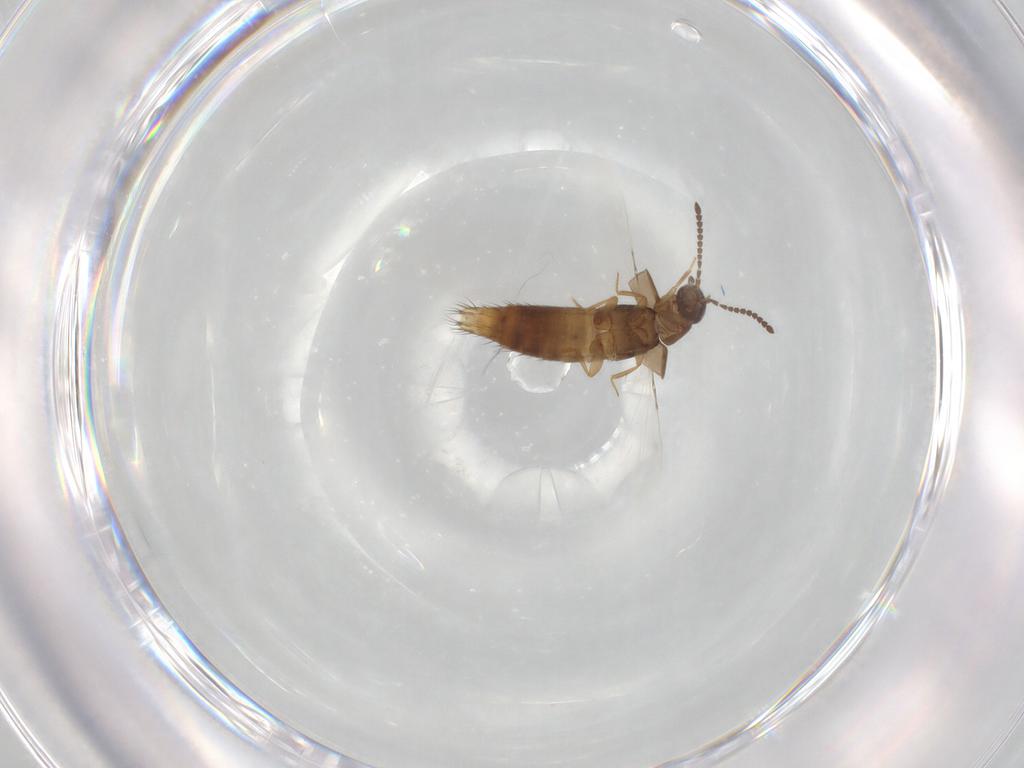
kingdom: Animalia
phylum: Arthropoda
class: Insecta
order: Coleoptera
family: Staphylinidae
